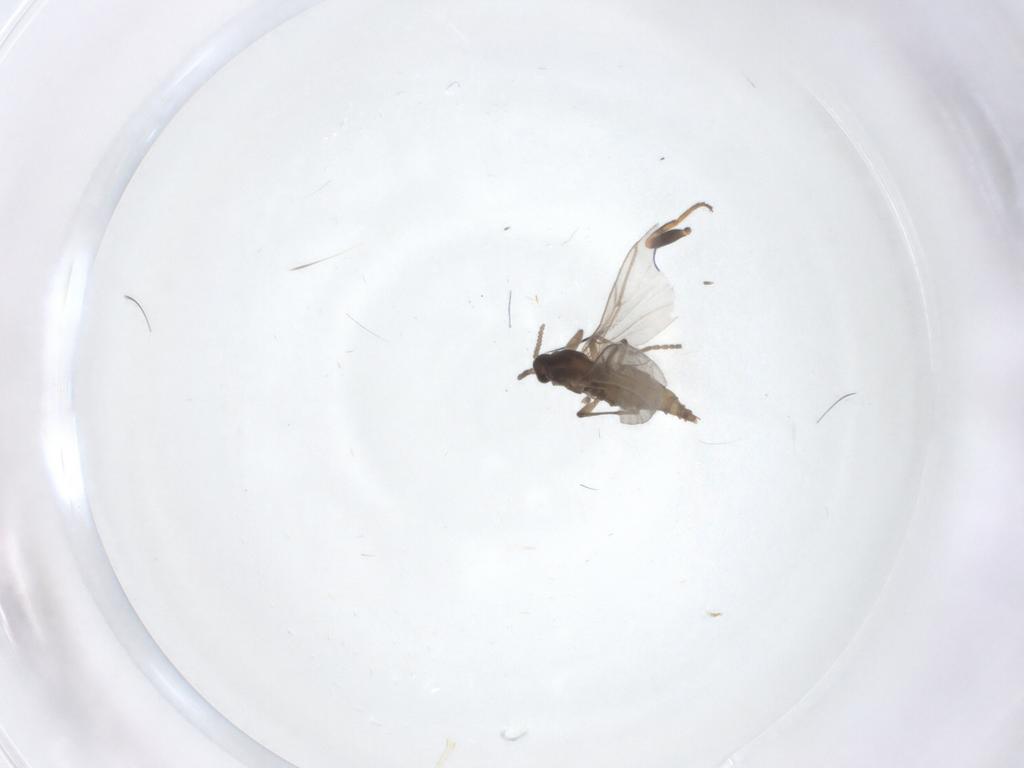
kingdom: Animalia
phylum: Arthropoda
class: Insecta
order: Diptera
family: Cecidomyiidae
